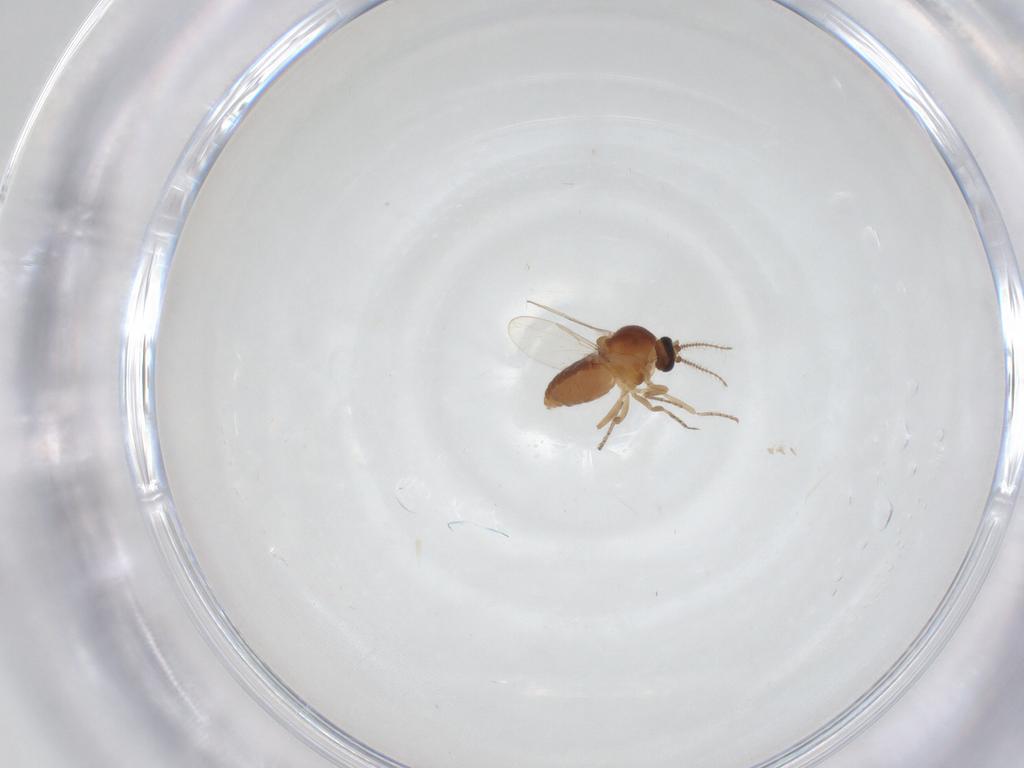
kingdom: Animalia
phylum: Arthropoda
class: Insecta
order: Diptera
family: Ceratopogonidae
